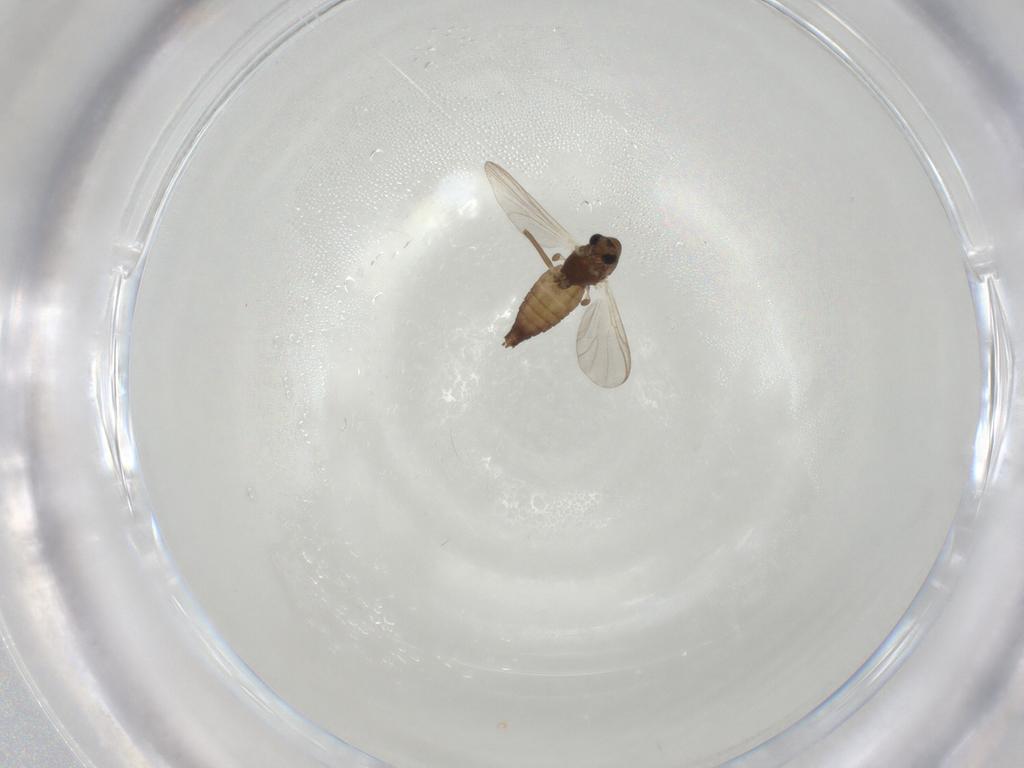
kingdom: Animalia
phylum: Arthropoda
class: Insecta
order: Diptera
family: Chironomidae
